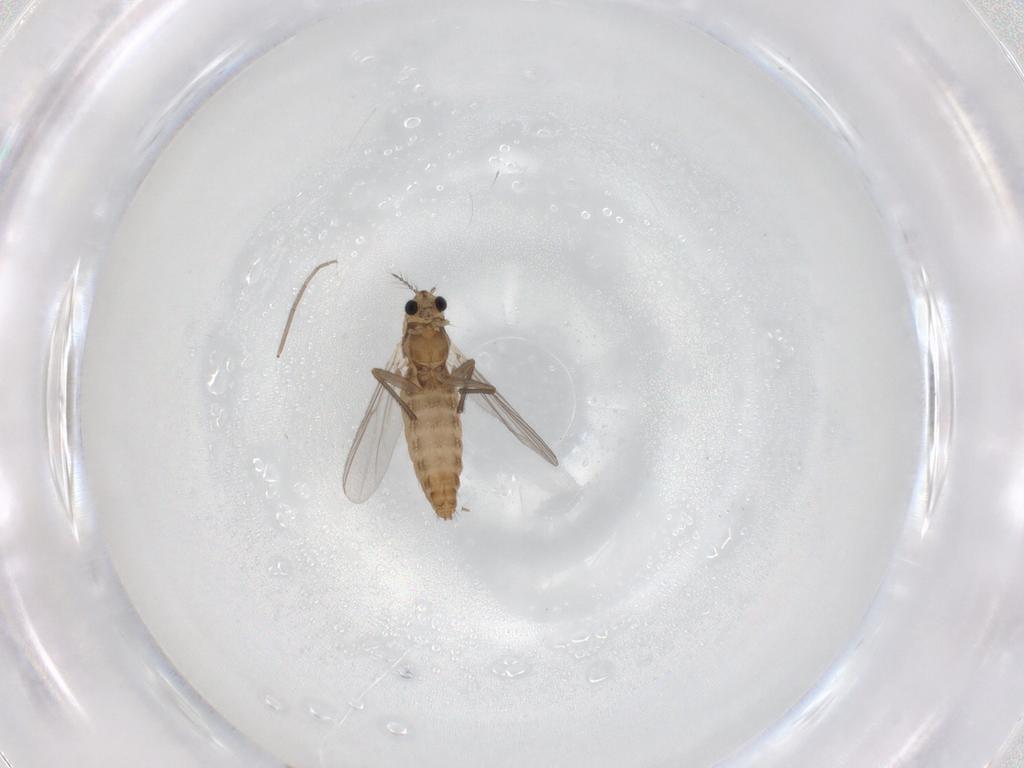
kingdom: Animalia
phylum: Arthropoda
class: Insecta
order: Diptera
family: Chironomidae
